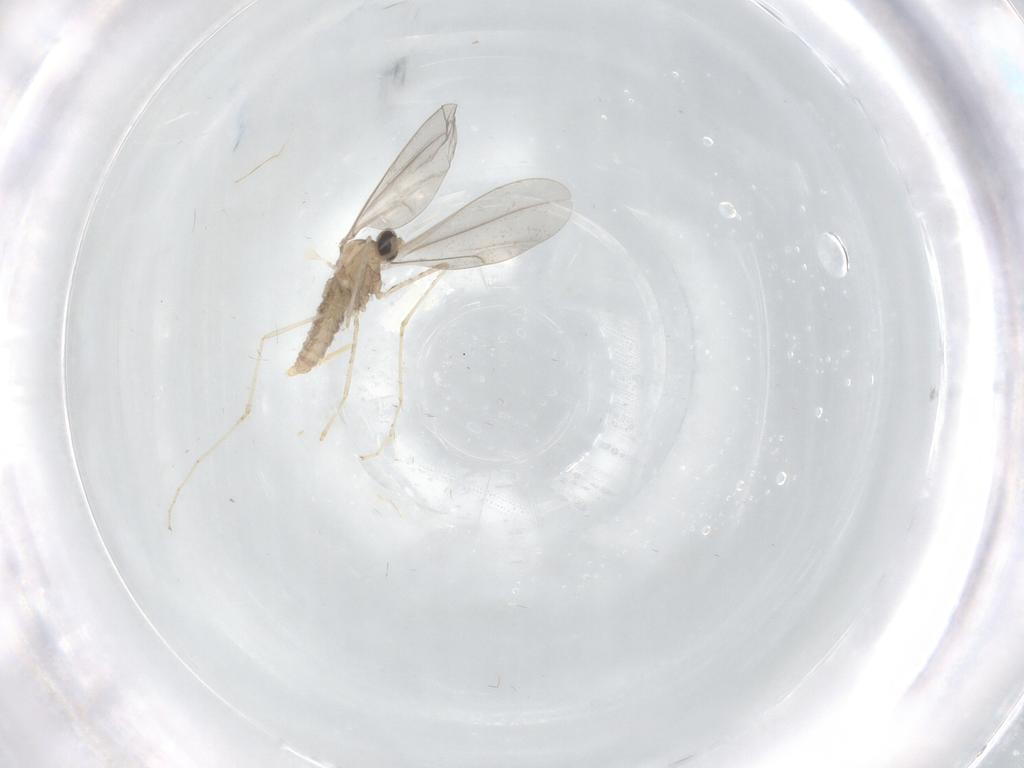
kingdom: Animalia
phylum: Arthropoda
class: Insecta
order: Diptera
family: Cecidomyiidae
